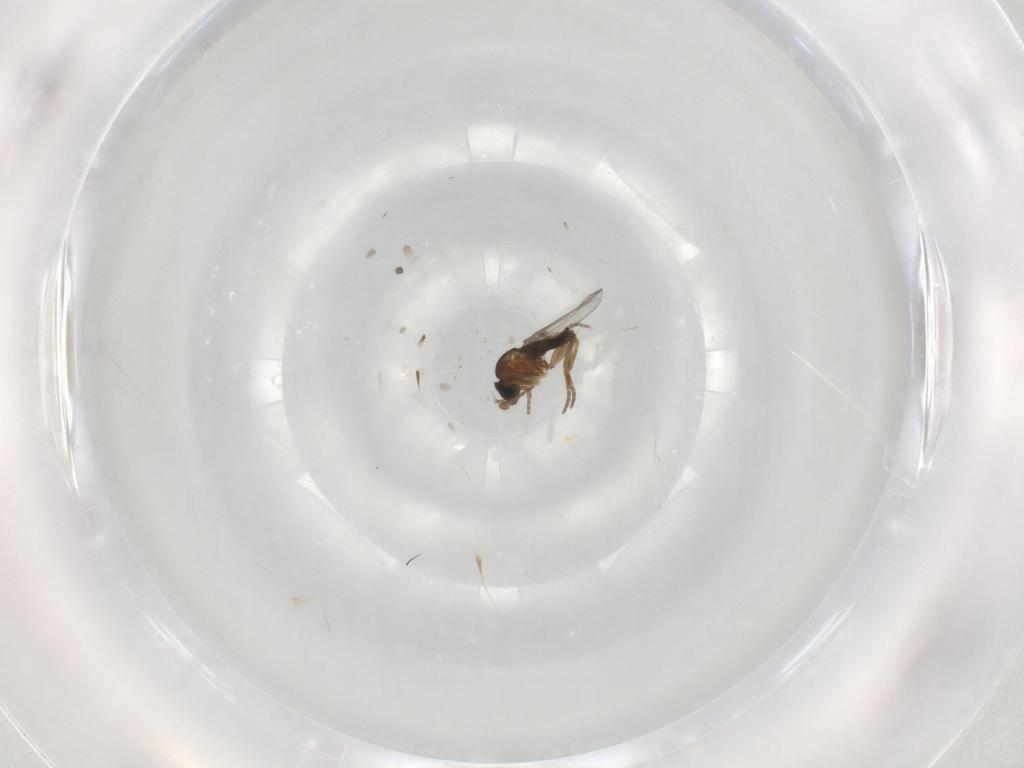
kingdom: Animalia
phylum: Arthropoda
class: Insecta
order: Diptera
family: Phoridae
